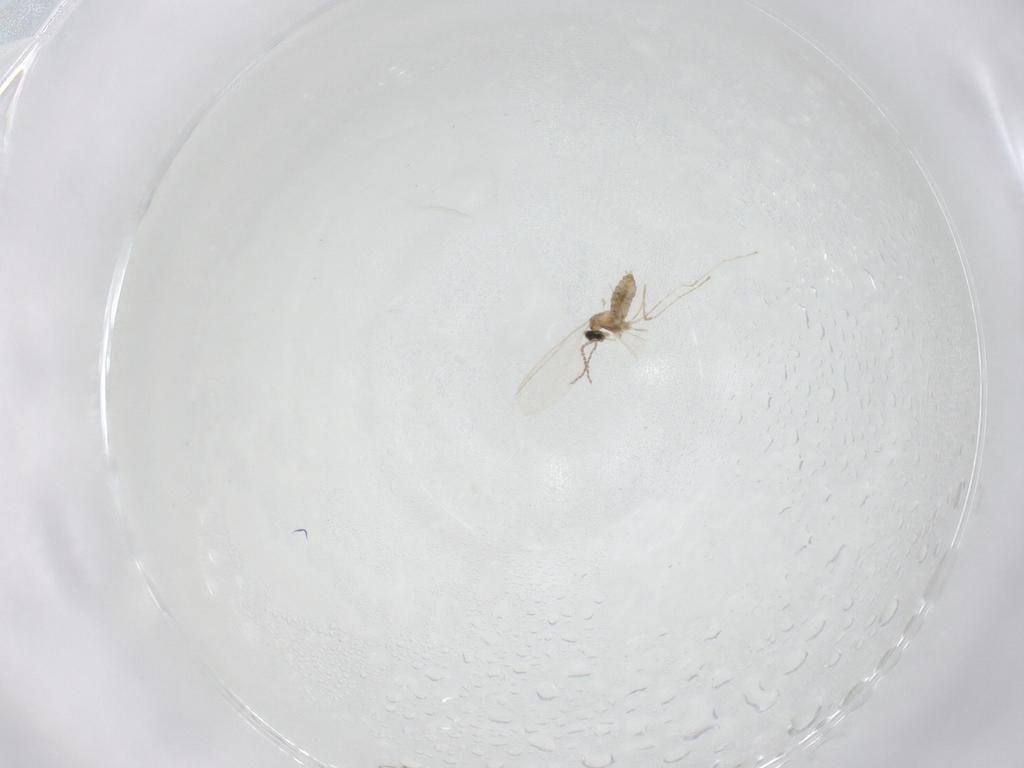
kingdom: Animalia
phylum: Arthropoda
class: Insecta
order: Diptera
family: Cecidomyiidae
